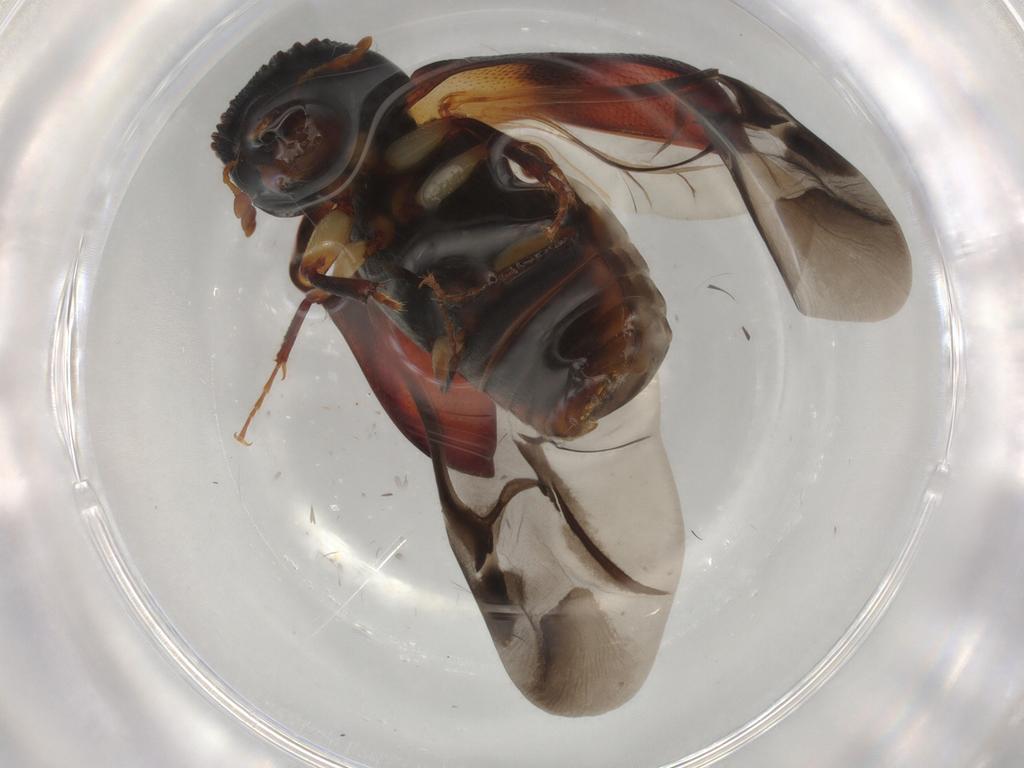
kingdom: Animalia
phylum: Arthropoda
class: Insecta
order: Coleoptera
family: Bostrichidae
